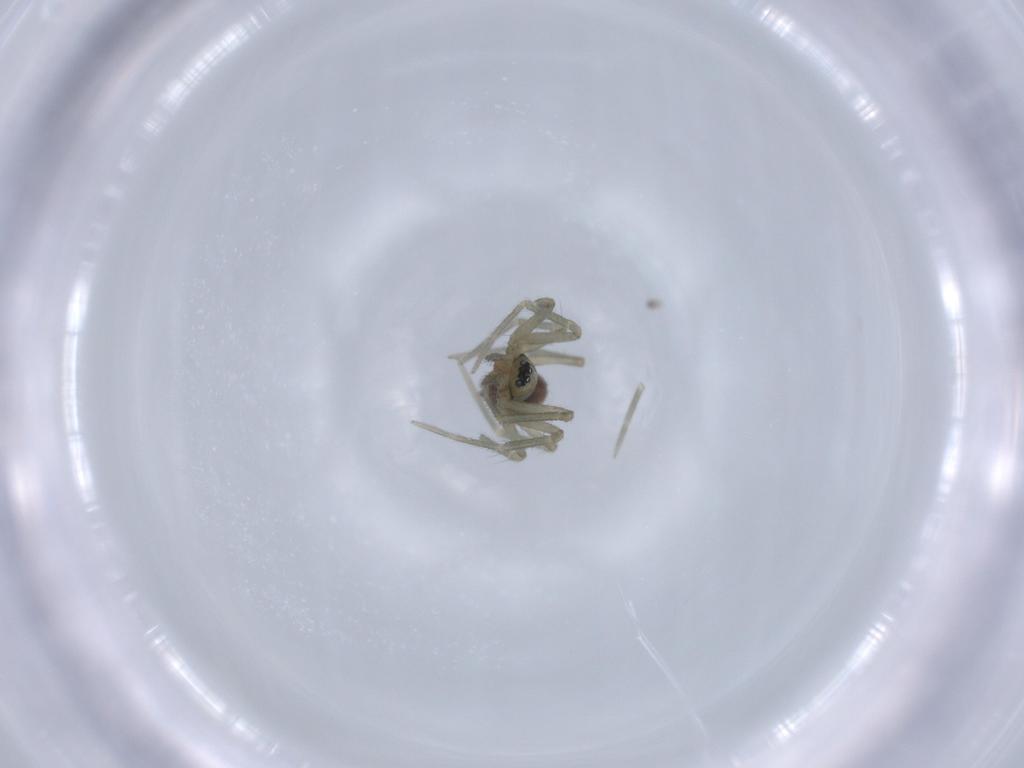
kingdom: Animalia
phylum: Arthropoda
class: Arachnida
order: Araneae
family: Linyphiidae
